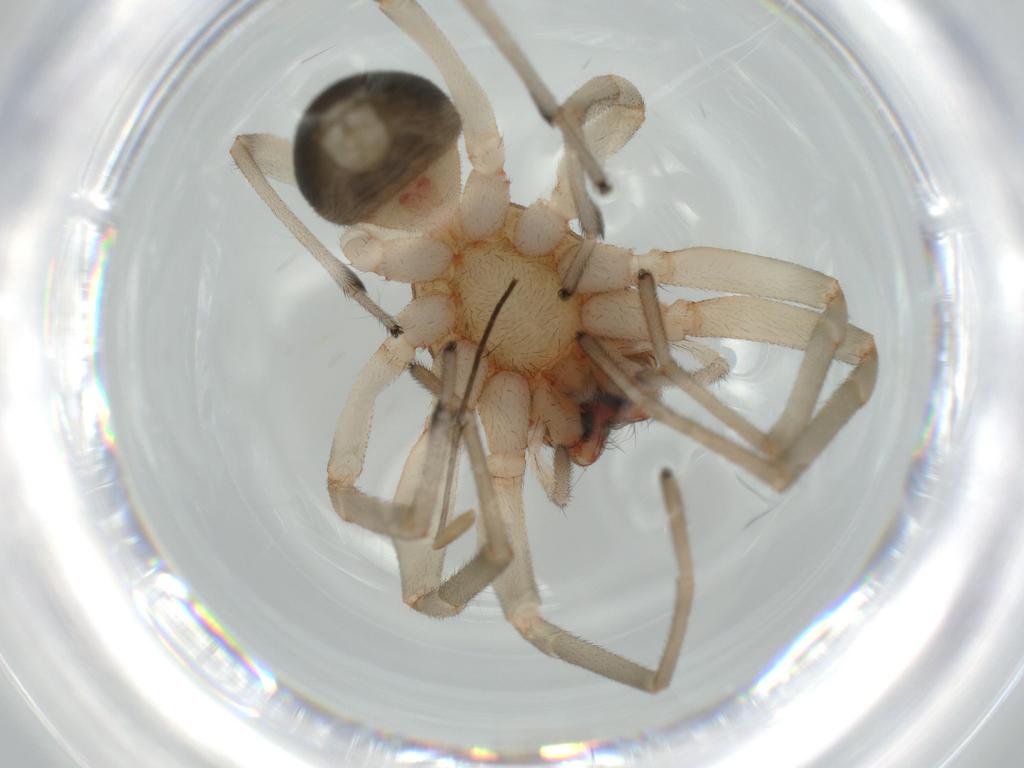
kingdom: Animalia
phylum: Arthropoda
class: Arachnida
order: Araneae
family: Trachelidae
